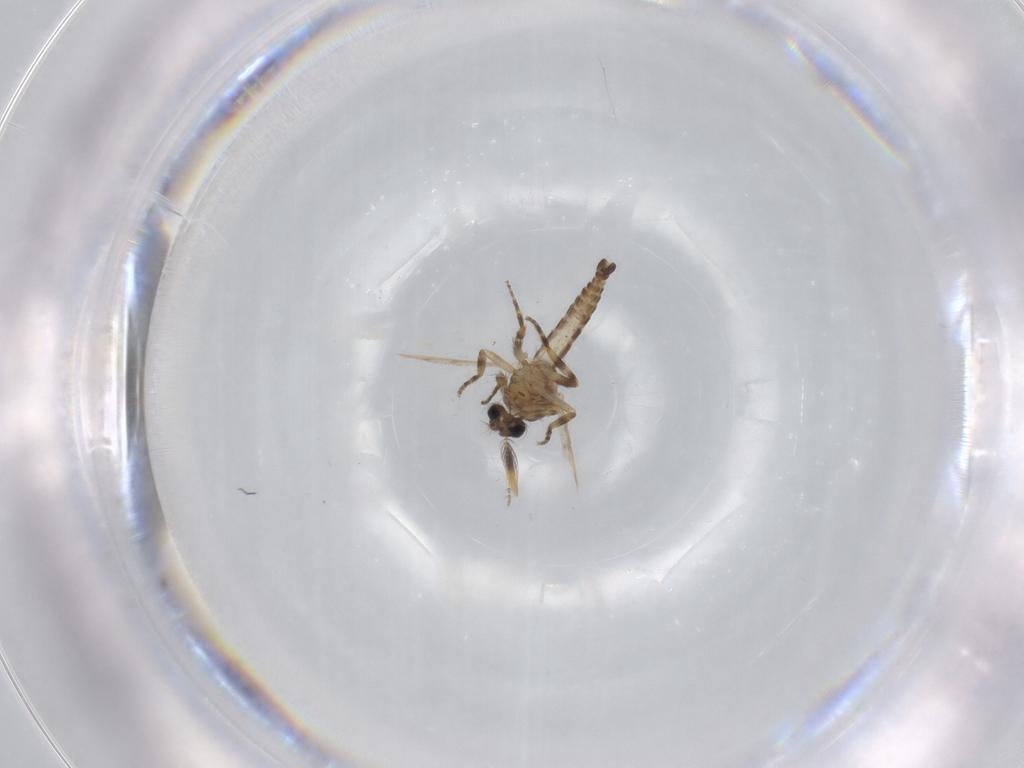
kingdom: Animalia
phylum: Arthropoda
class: Insecta
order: Diptera
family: Ceratopogonidae
